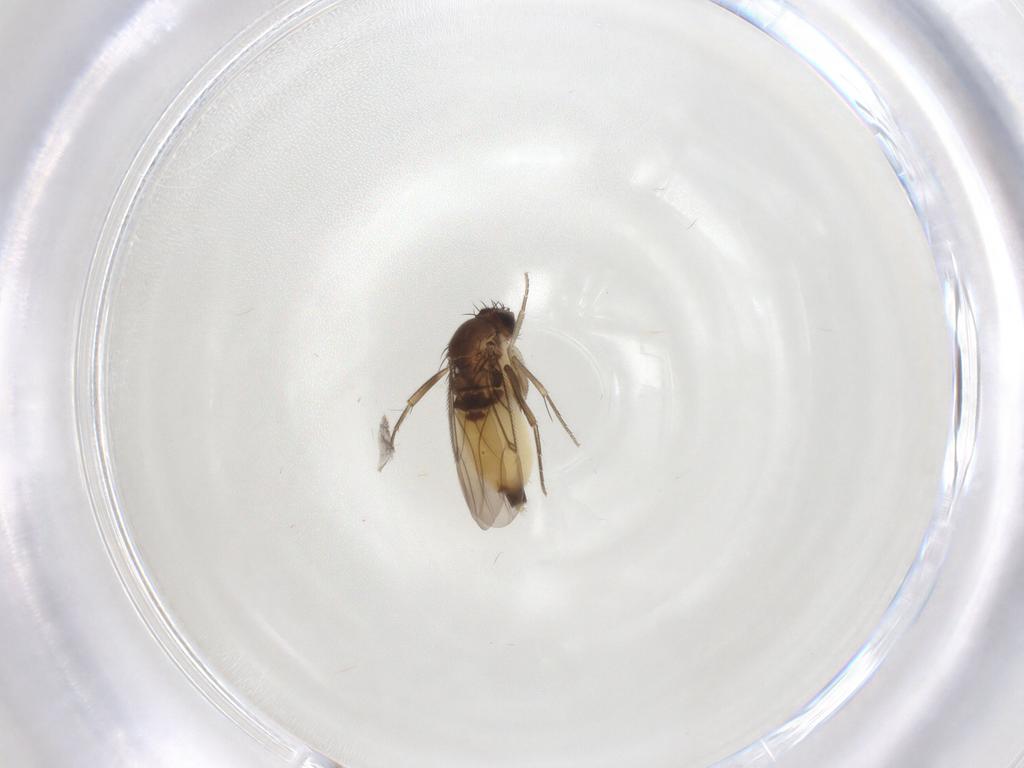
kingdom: Animalia
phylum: Arthropoda
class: Insecta
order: Diptera
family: Phoridae
